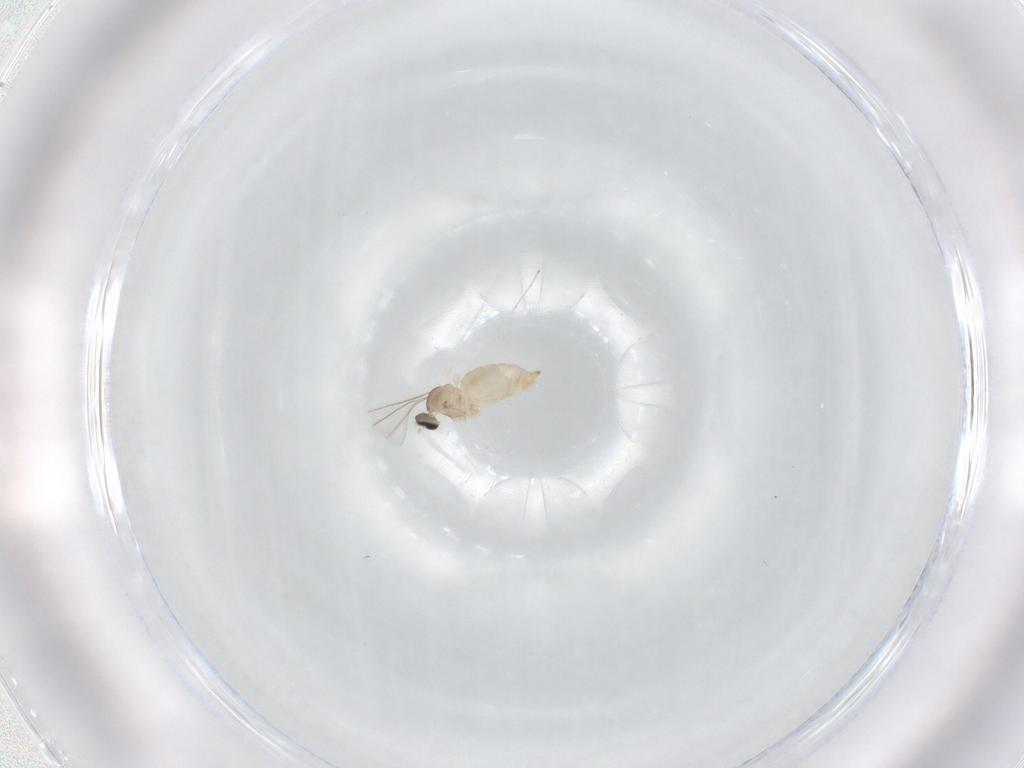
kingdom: Animalia
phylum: Arthropoda
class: Insecta
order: Diptera
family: Cecidomyiidae
